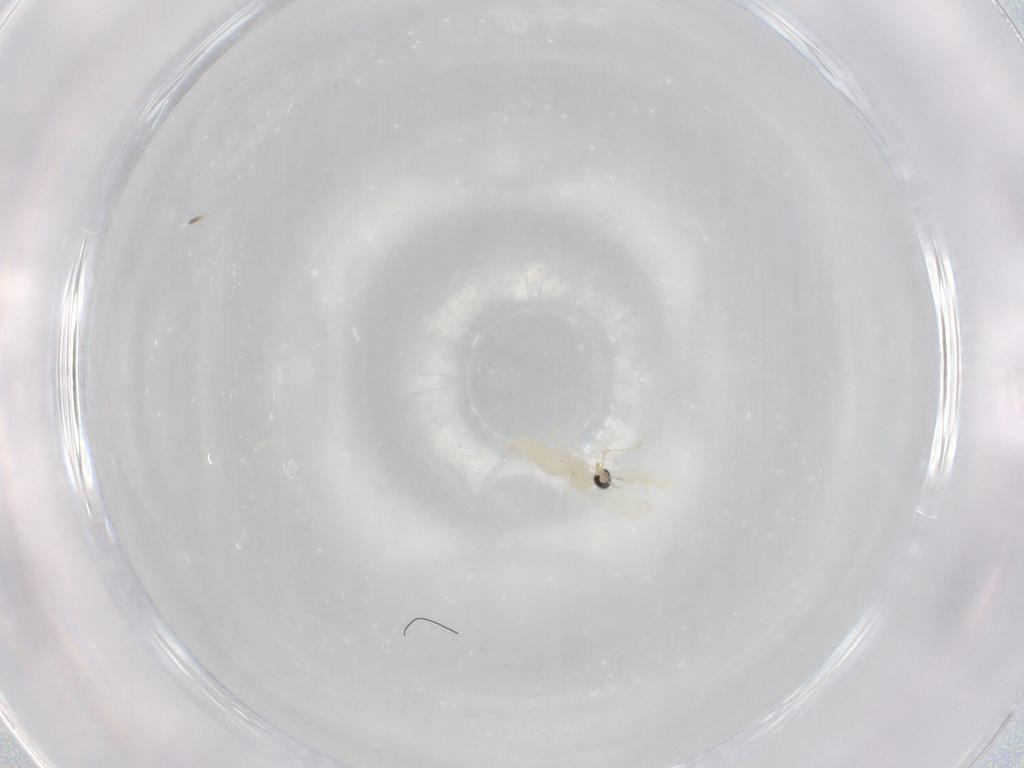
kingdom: Animalia
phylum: Arthropoda
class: Insecta
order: Diptera
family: Cecidomyiidae
